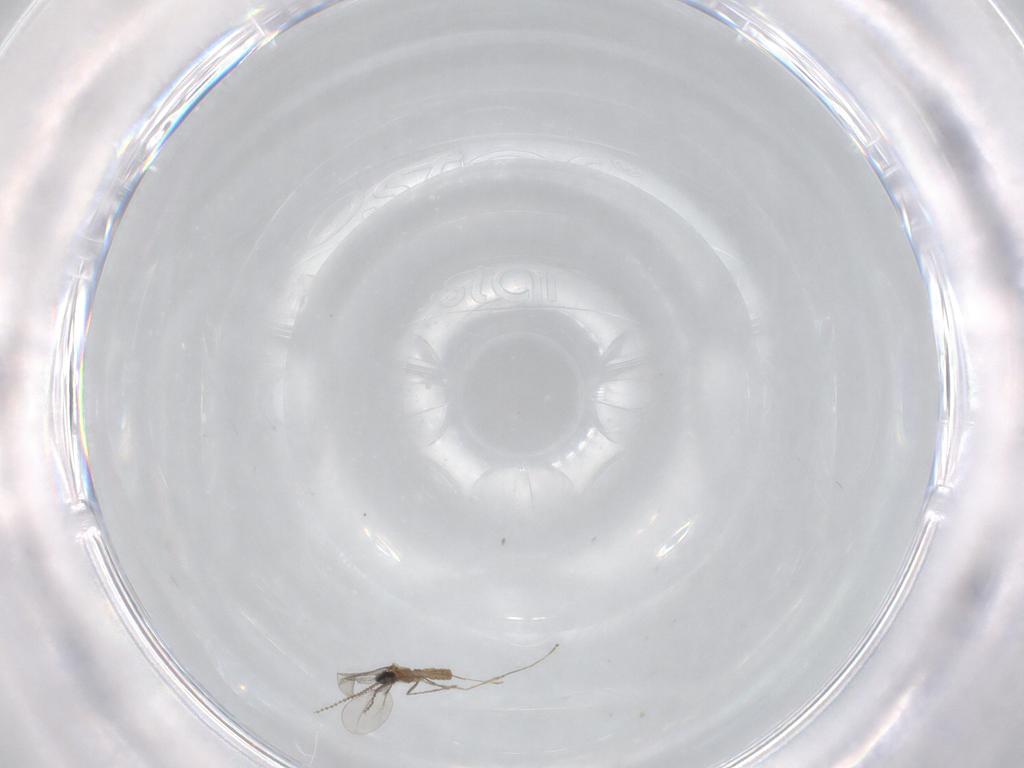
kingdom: Animalia
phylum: Arthropoda
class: Insecta
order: Diptera
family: Cecidomyiidae
